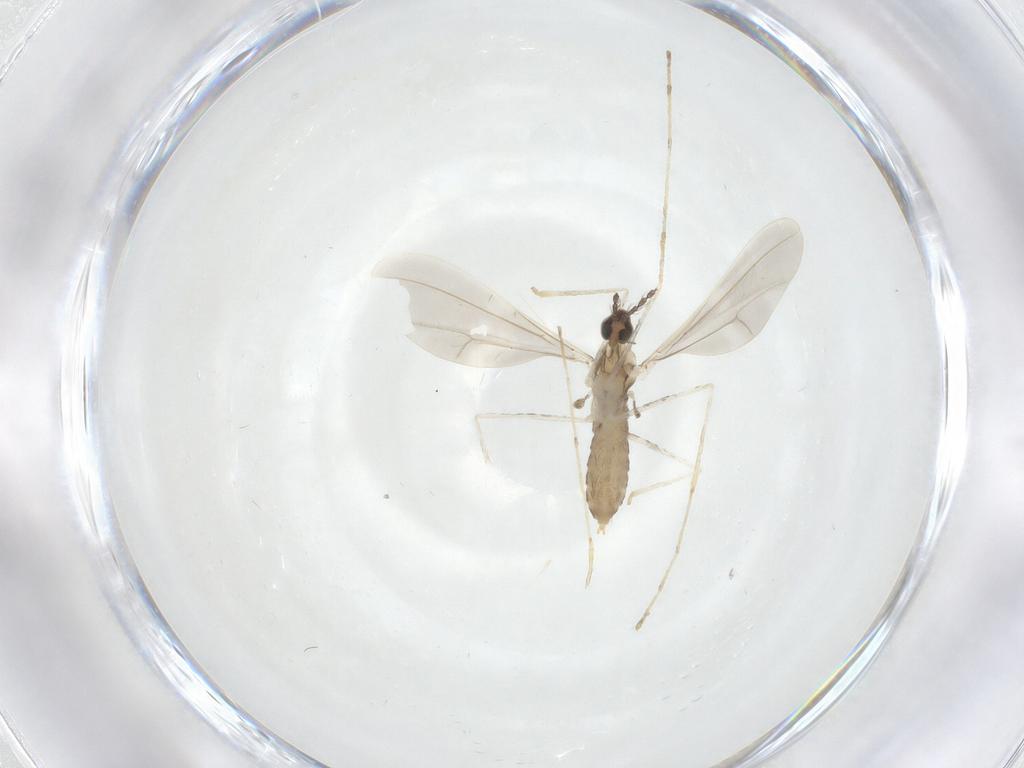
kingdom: Animalia
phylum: Arthropoda
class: Insecta
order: Diptera
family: Cecidomyiidae
